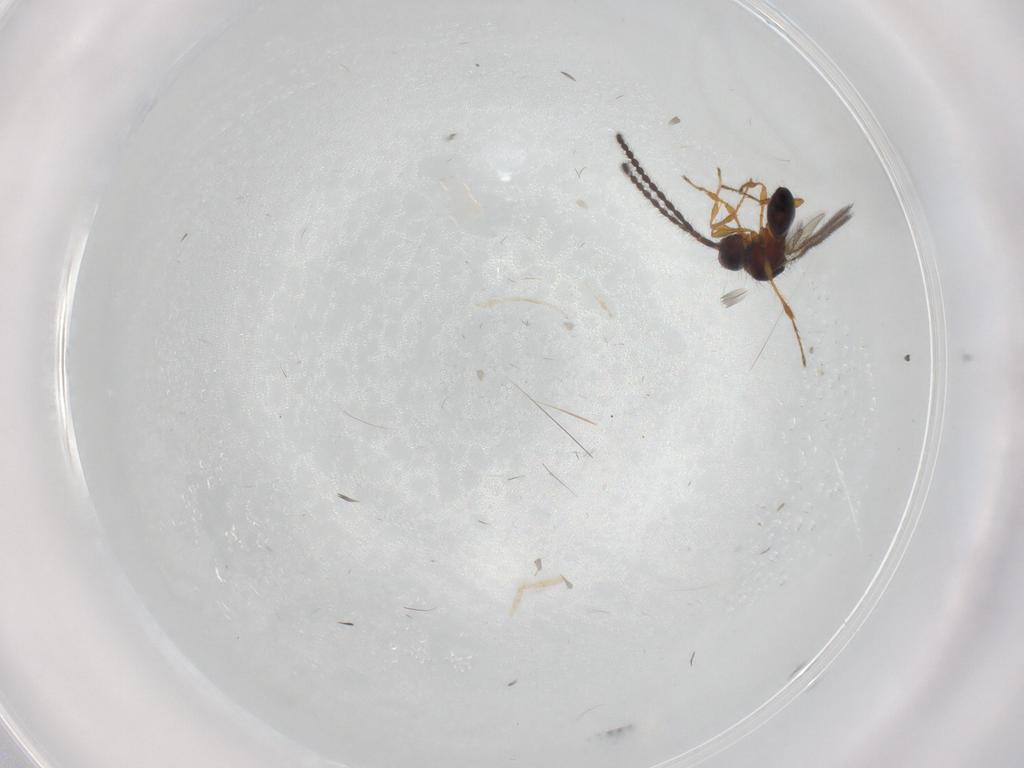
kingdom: Animalia
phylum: Arthropoda
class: Insecta
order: Hymenoptera
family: Diapriidae
